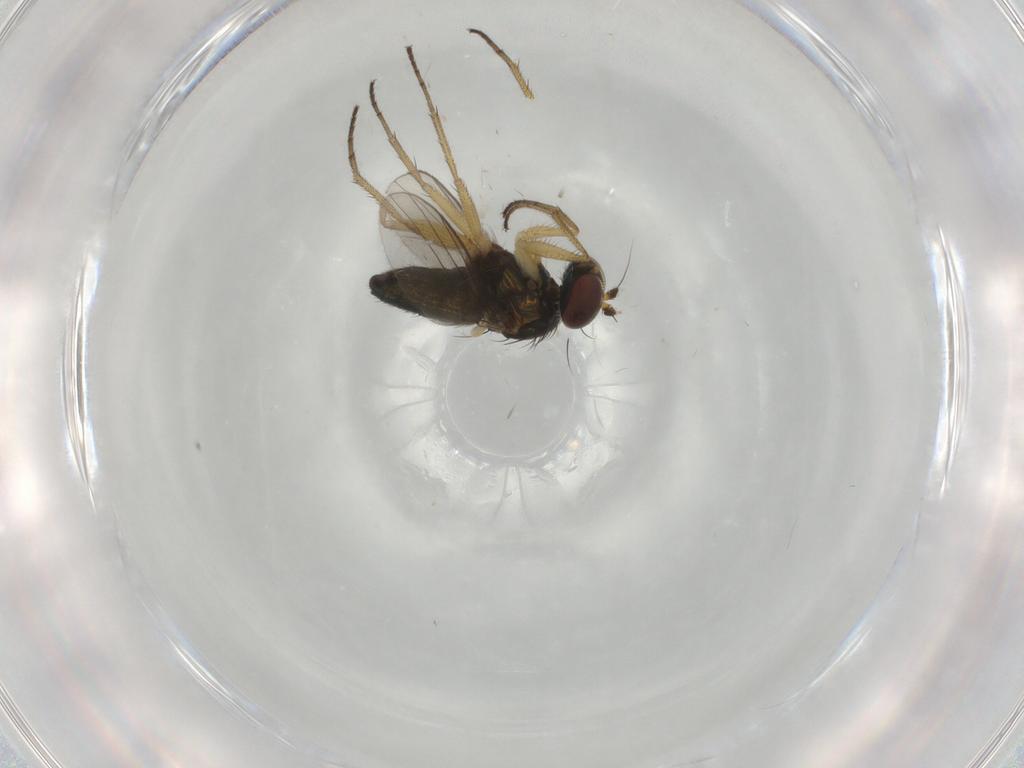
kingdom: Animalia
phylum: Arthropoda
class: Insecta
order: Diptera
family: Dolichopodidae
